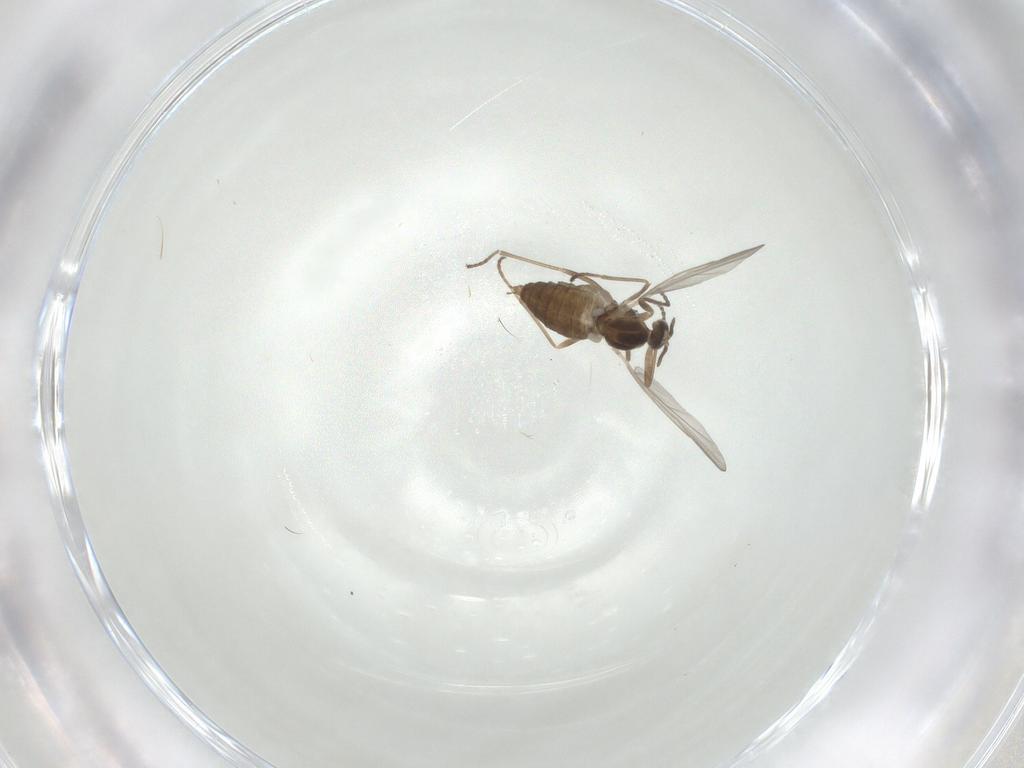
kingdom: Animalia
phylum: Arthropoda
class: Insecta
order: Diptera
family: Cecidomyiidae
